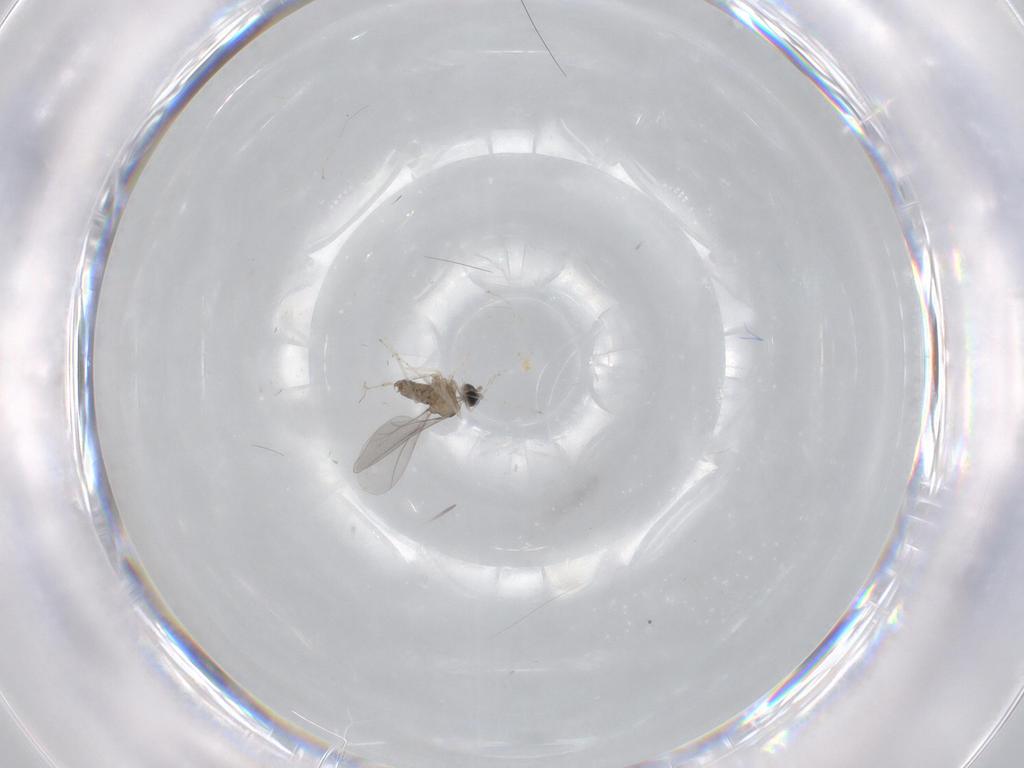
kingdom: Animalia
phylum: Arthropoda
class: Insecta
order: Diptera
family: Cecidomyiidae
